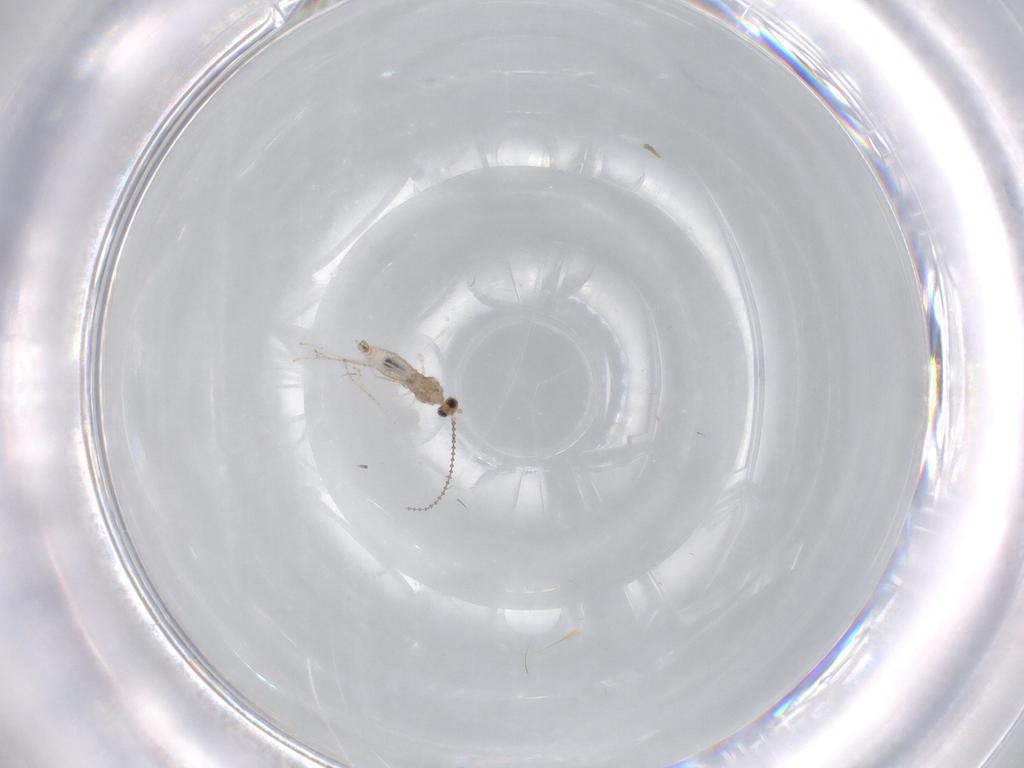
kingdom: Animalia
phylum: Arthropoda
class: Insecta
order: Diptera
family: Cecidomyiidae
